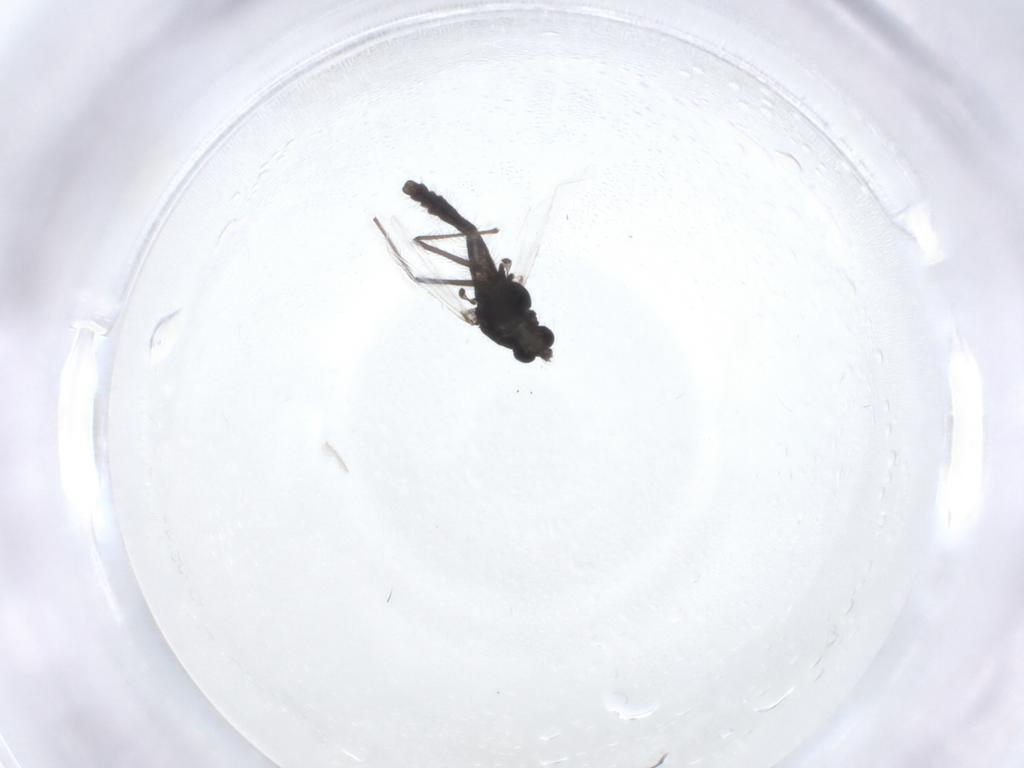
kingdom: Animalia
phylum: Arthropoda
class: Insecta
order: Diptera
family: Chironomidae
